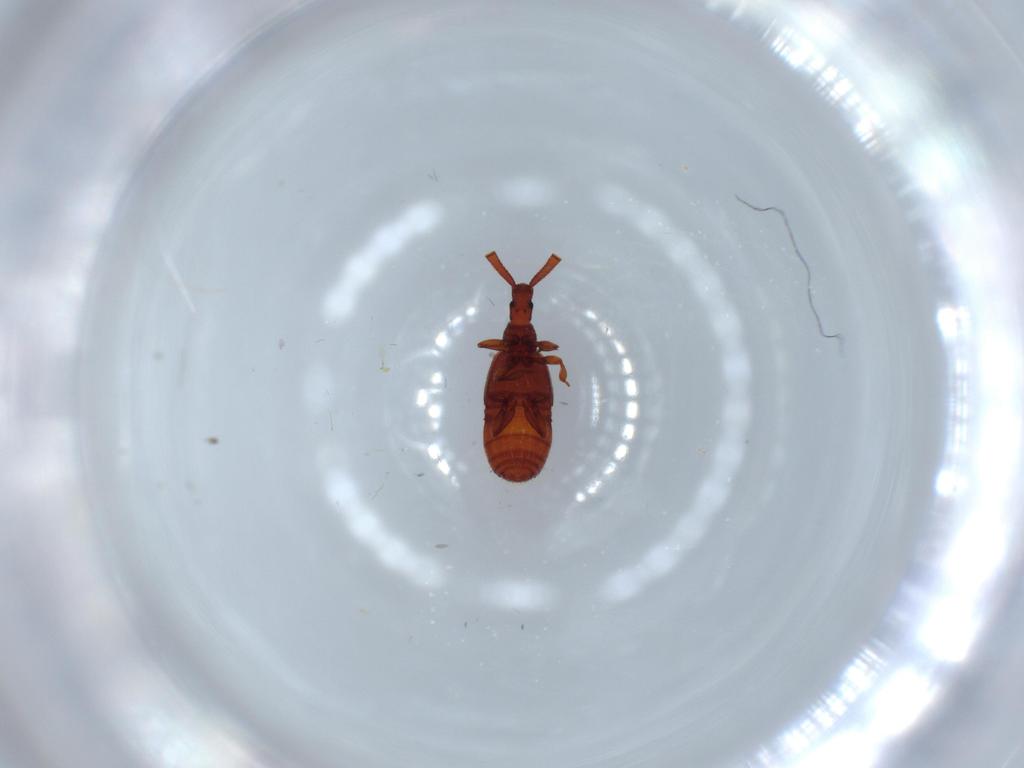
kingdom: Animalia
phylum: Arthropoda
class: Insecta
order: Coleoptera
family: Staphylinidae
